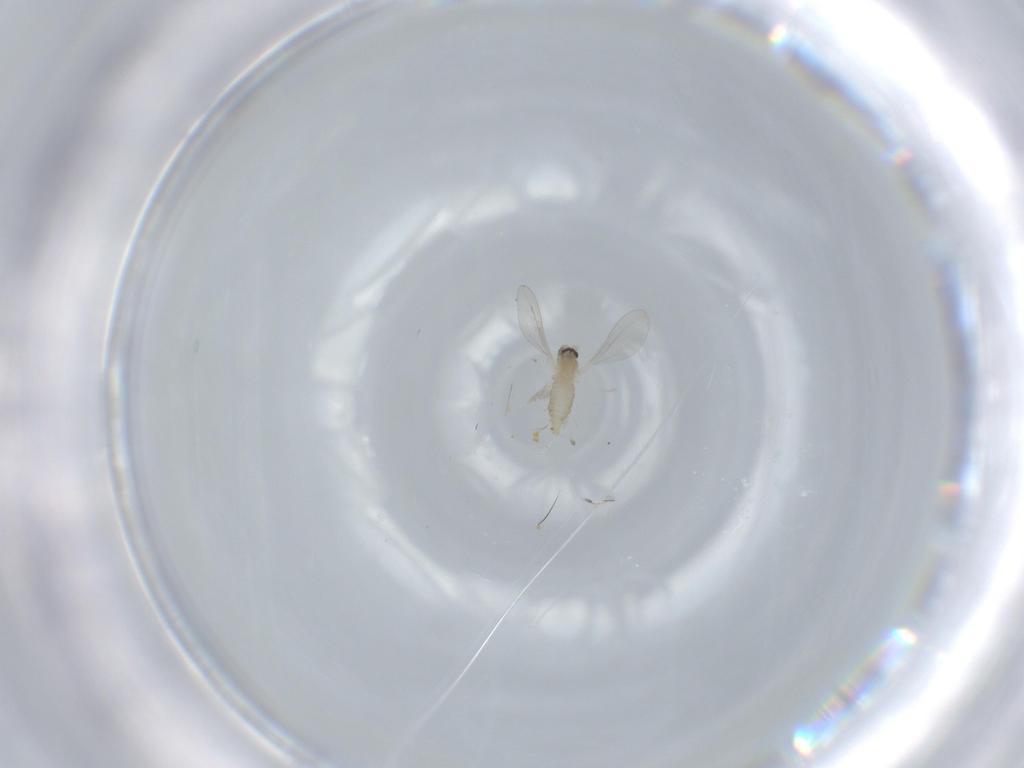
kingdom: Animalia
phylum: Arthropoda
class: Insecta
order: Diptera
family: Cecidomyiidae
